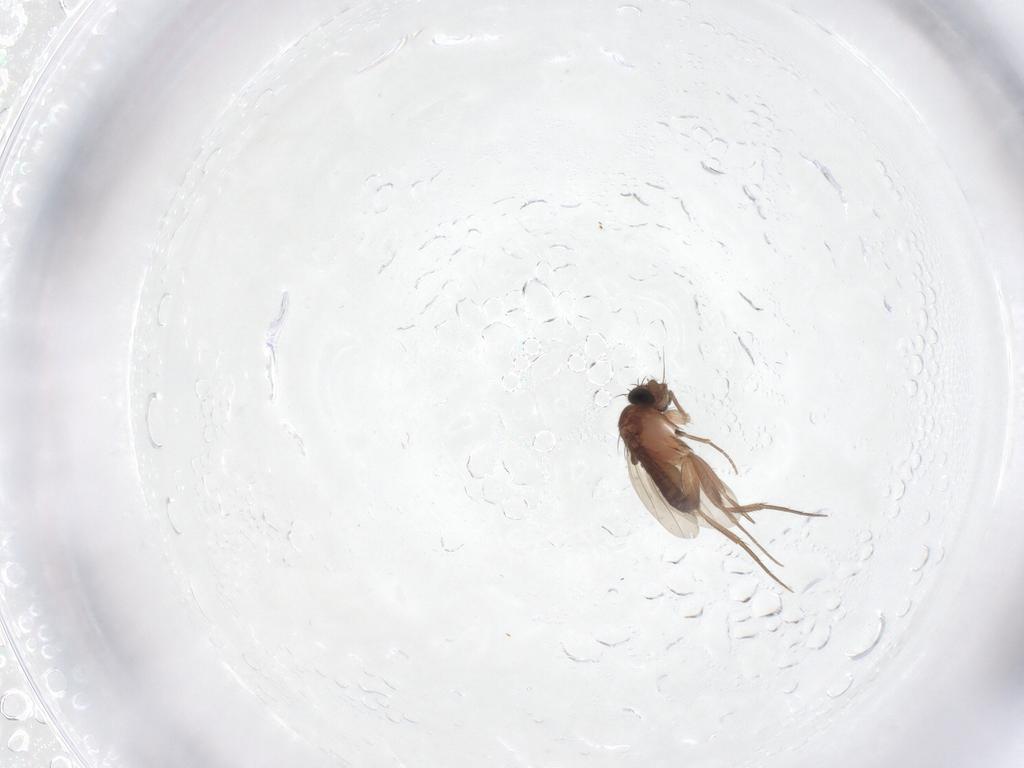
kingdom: Animalia
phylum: Arthropoda
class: Insecta
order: Diptera
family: Phoridae
